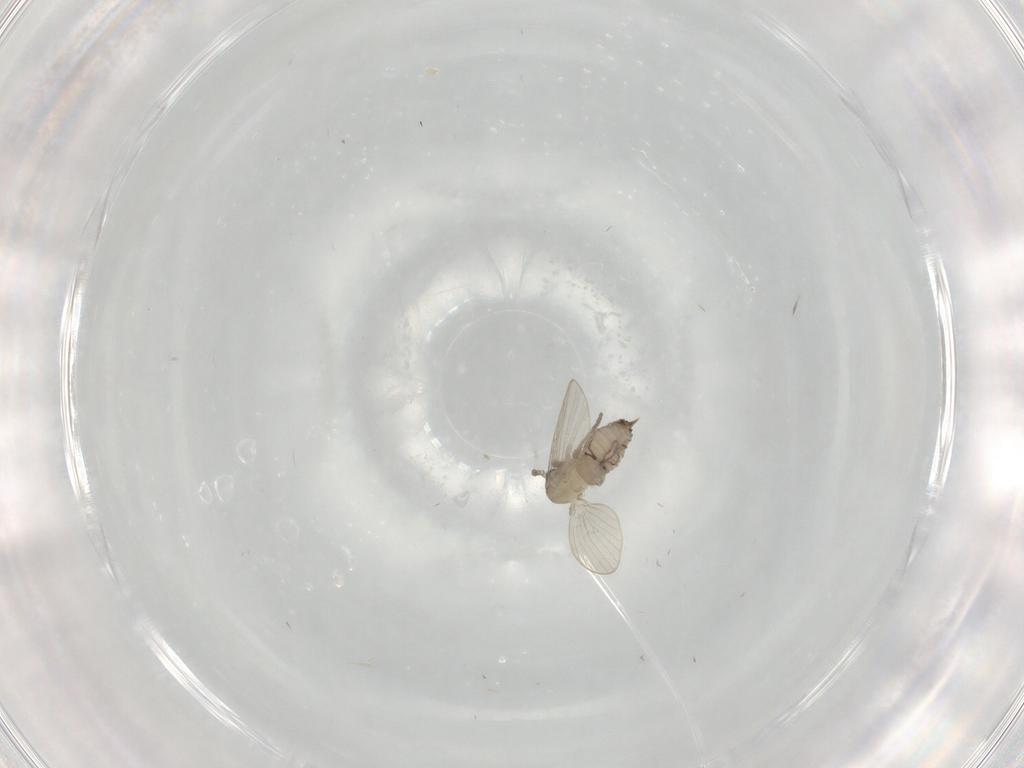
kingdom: Animalia
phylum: Arthropoda
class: Insecta
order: Diptera
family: Psychodidae
